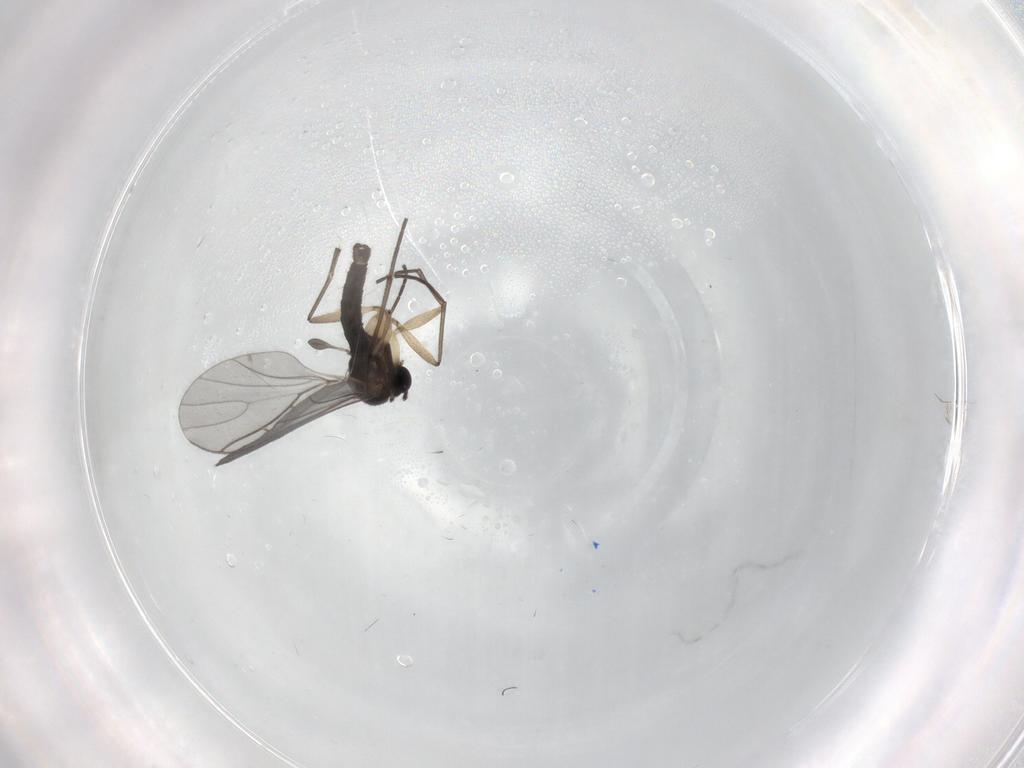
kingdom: Animalia
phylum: Arthropoda
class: Insecta
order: Diptera
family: Sciaridae
